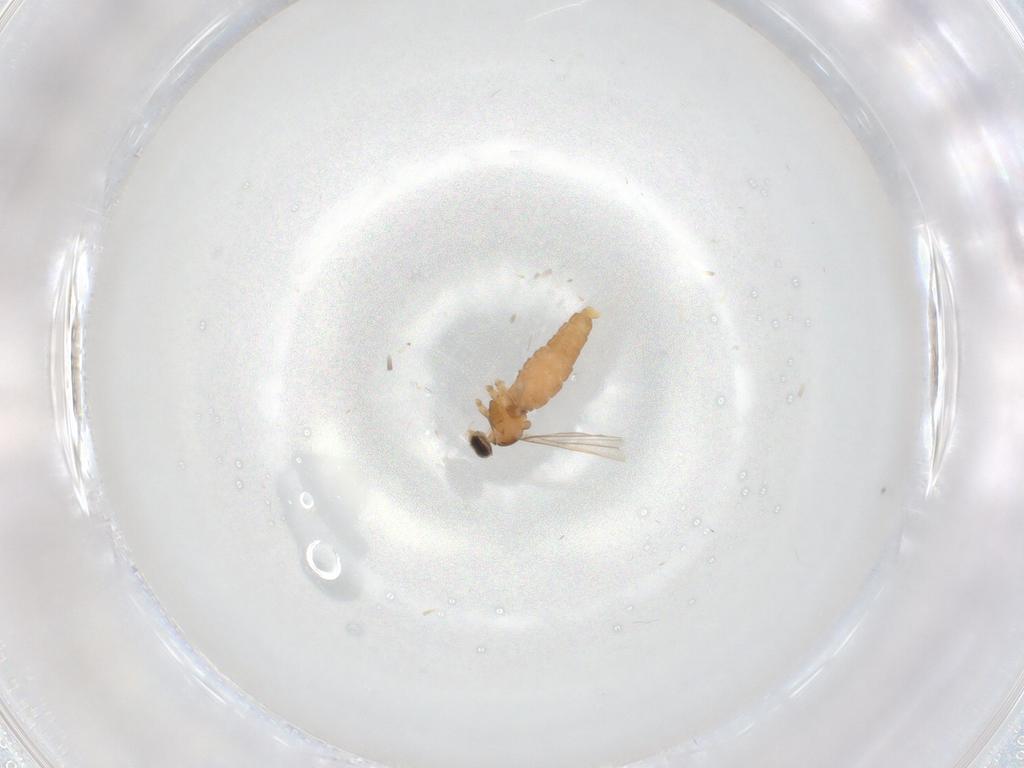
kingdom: Animalia
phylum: Arthropoda
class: Insecta
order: Diptera
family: Cecidomyiidae
